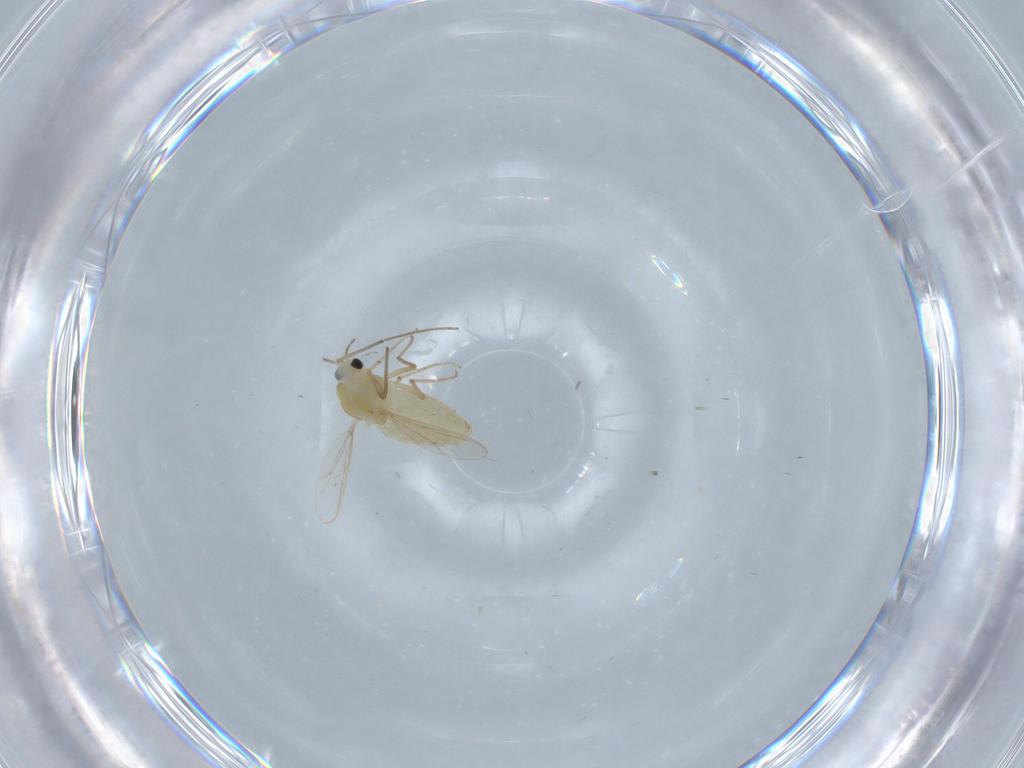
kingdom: Animalia
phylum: Arthropoda
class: Insecta
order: Diptera
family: Chironomidae
